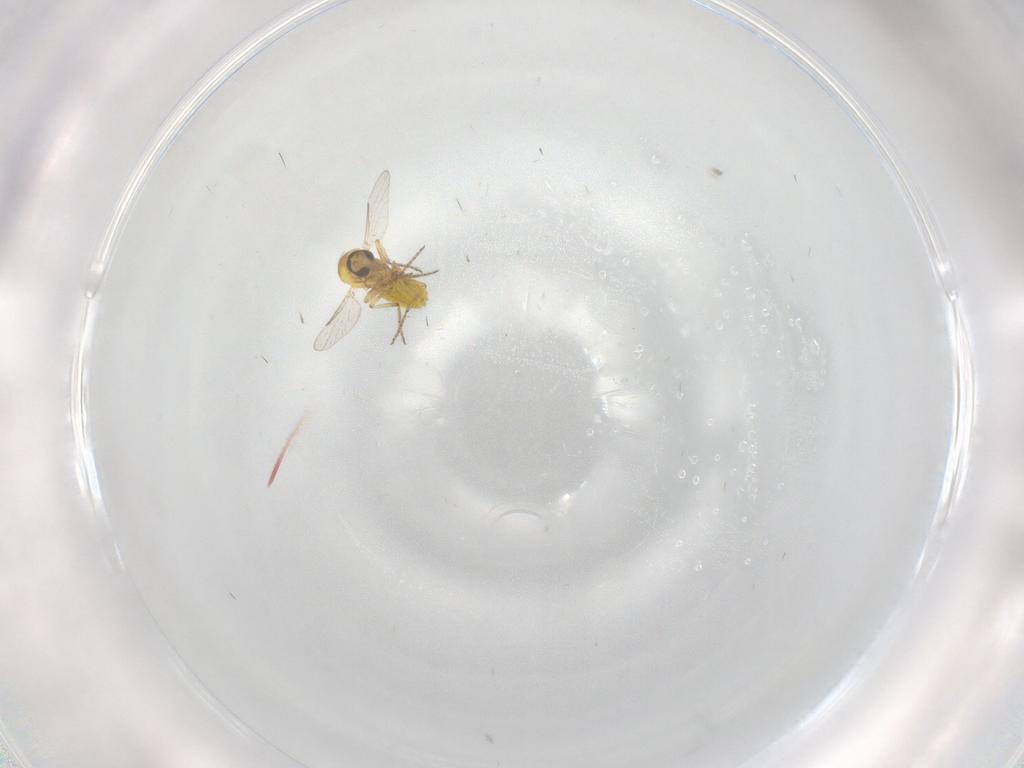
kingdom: Animalia
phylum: Arthropoda
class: Insecta
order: Diptera
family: Ceratopogonidae
